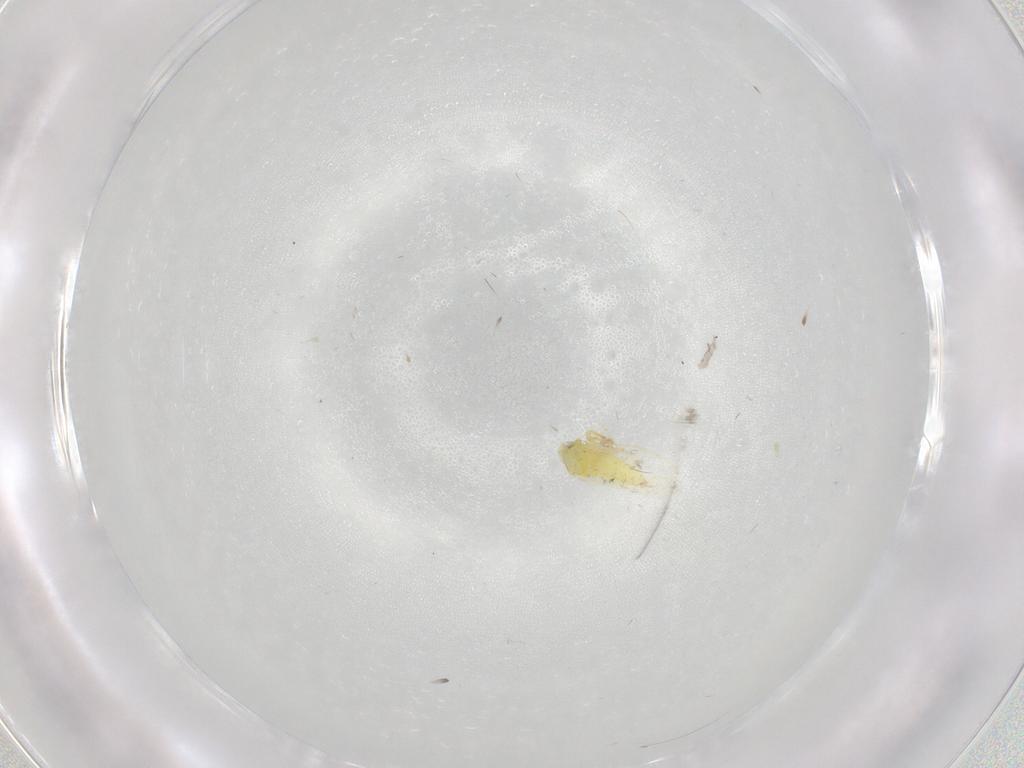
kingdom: Animalia
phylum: Arthropoda
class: Insecta
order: Hemiptera
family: Aleyrodidae
